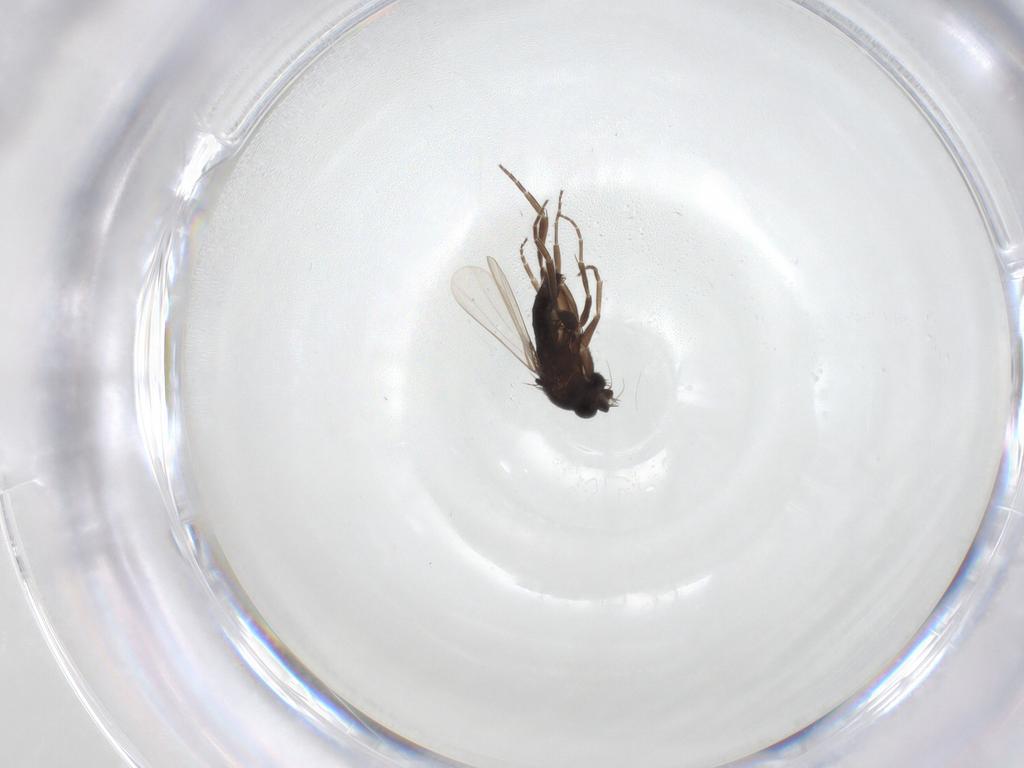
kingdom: Animalia
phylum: Arthropoda
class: Insecta
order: Diptera
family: Phoridae
